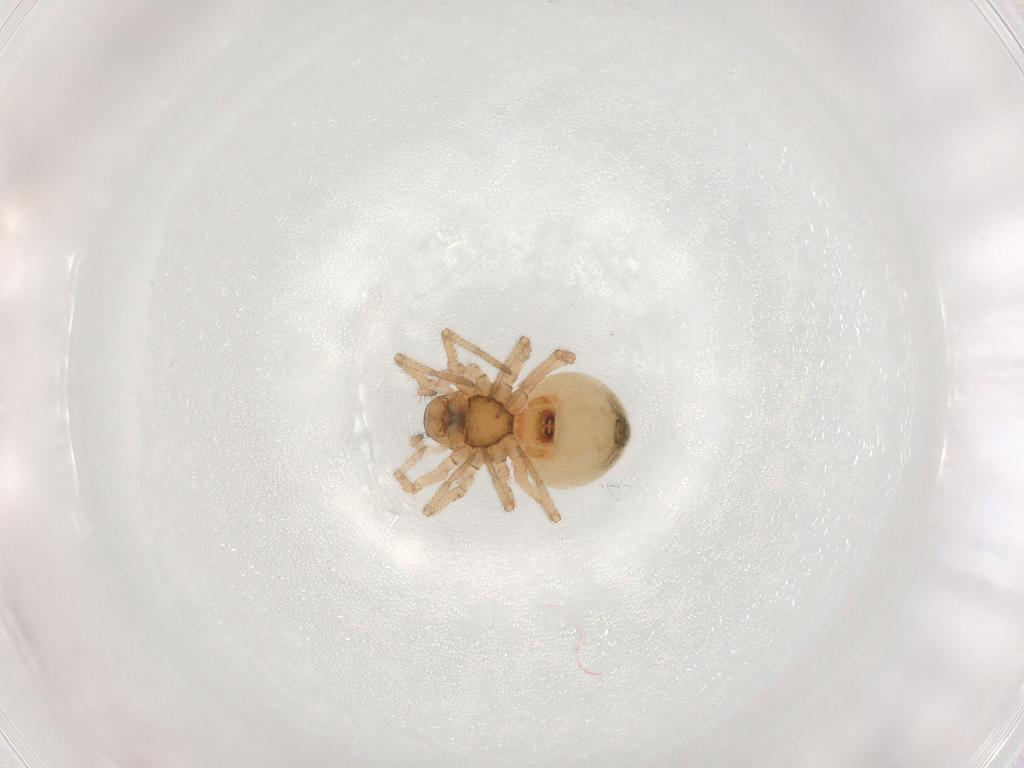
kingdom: Animalia
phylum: Arthropoda
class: Arachnida
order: Araneae
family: Linyphiidae
